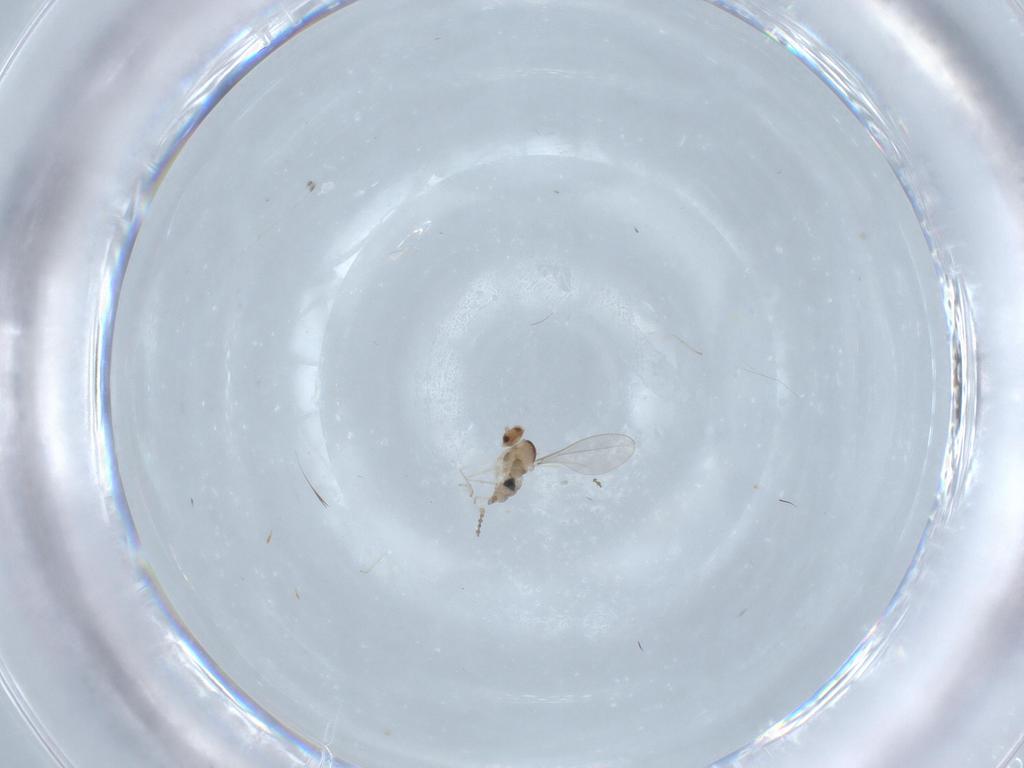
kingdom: Animalia
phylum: Arthropoda
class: Insecta
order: Diptera
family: Cecidomyiidae
